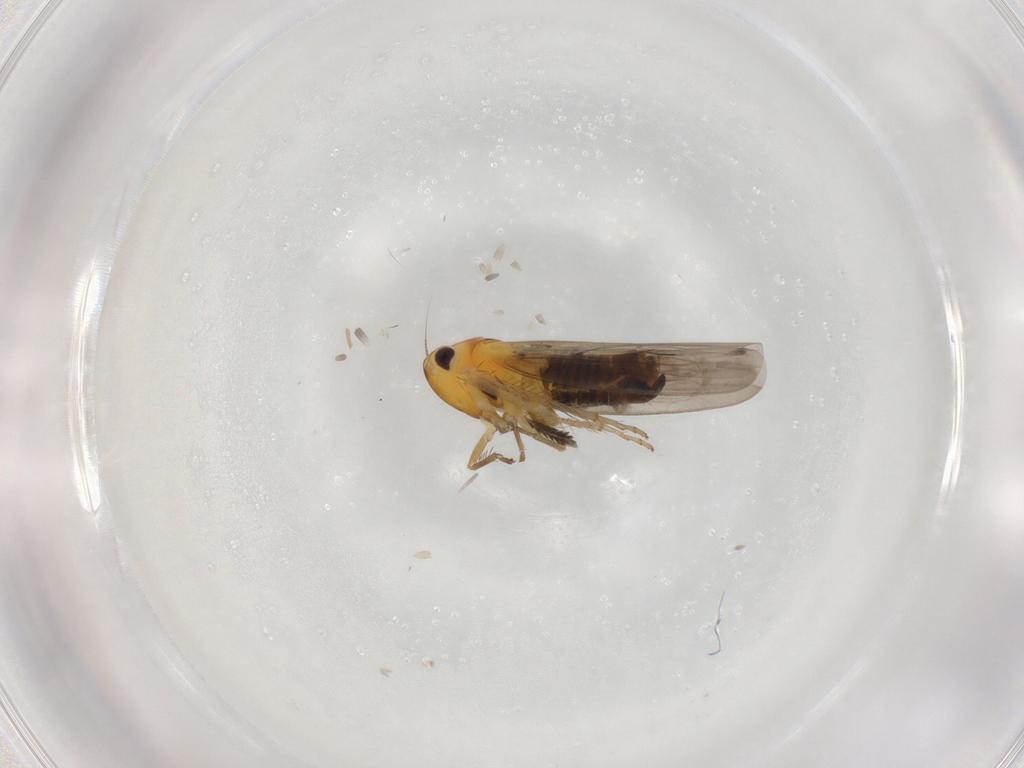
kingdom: Animalia
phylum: Arthropoda
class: Insecta
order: Hemiptera
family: Cicadellidae
